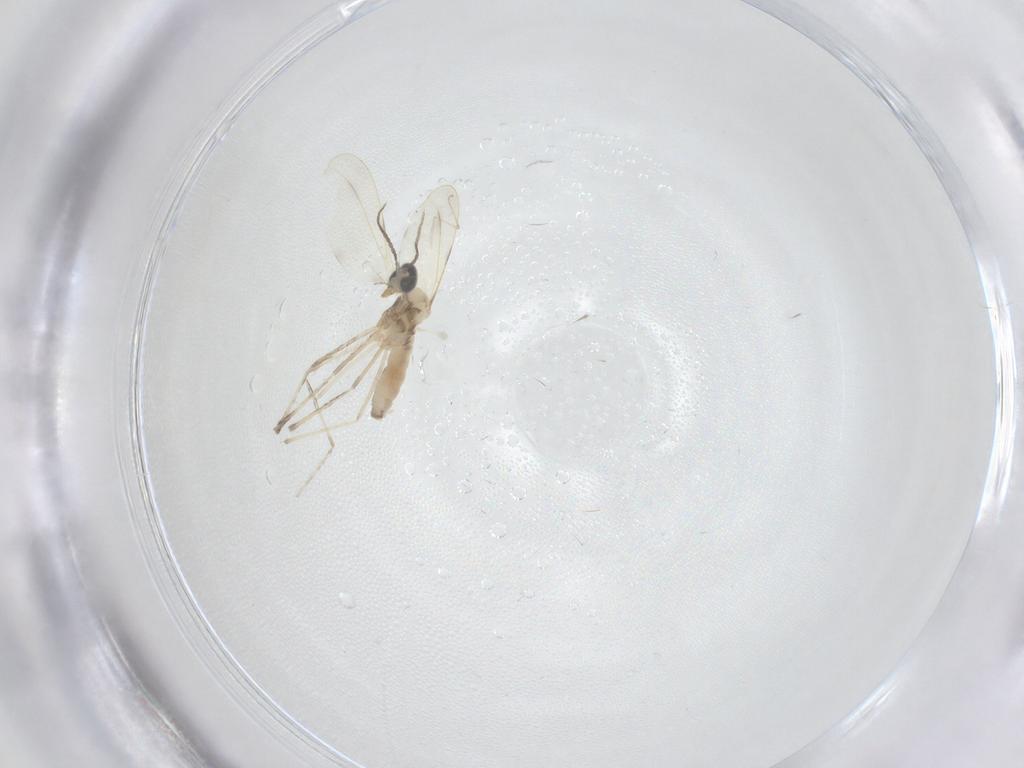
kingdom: Animalia
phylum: Arthropoda
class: Insecta
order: Diptera
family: Cecidomyiidae
